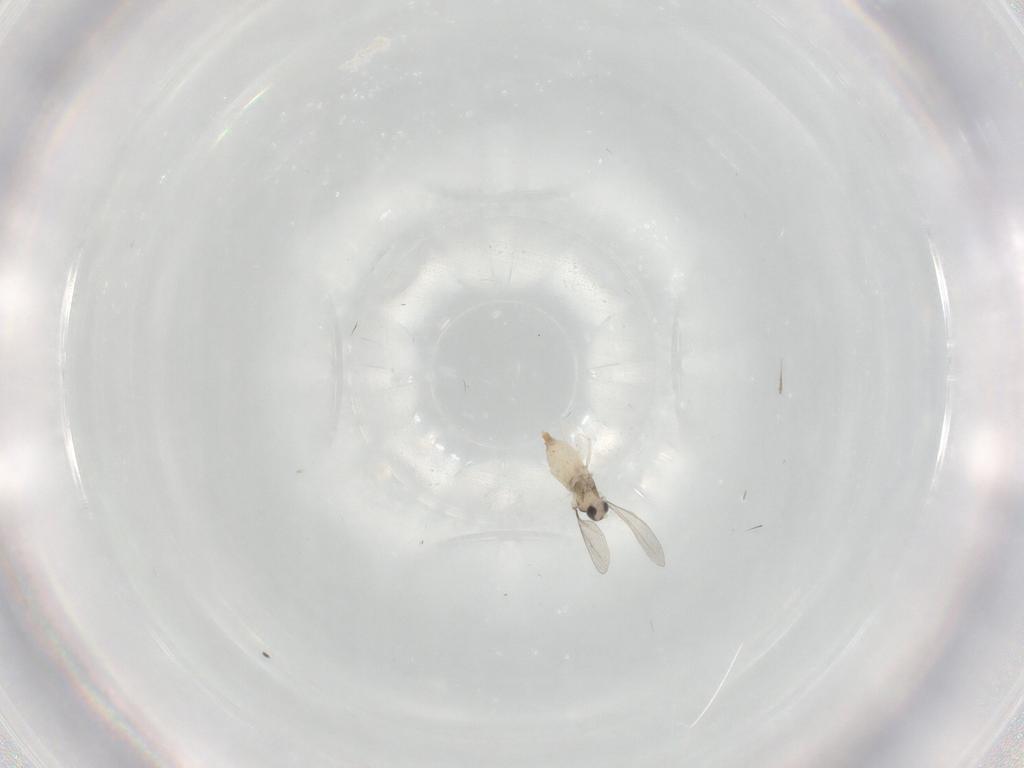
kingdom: Animalia
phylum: Arthropoda
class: Insecta
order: Diptera
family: Cecidomyiidae
